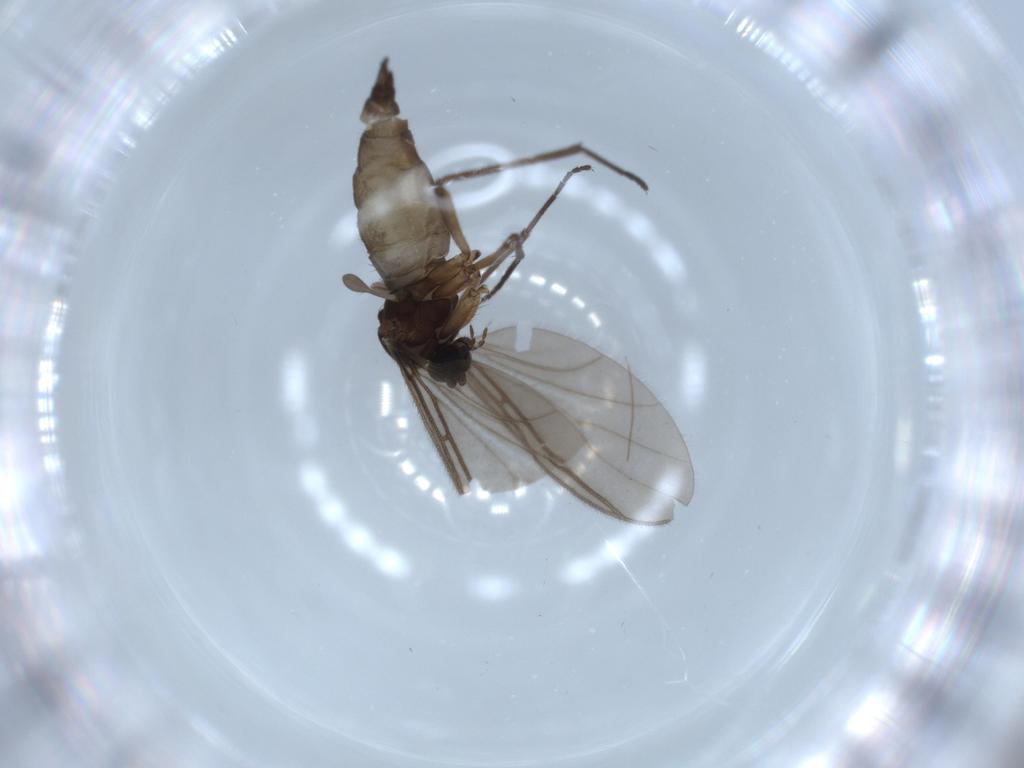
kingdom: Animalia
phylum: Arthropoda
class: Insecta
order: Diptera
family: Sciaridae
